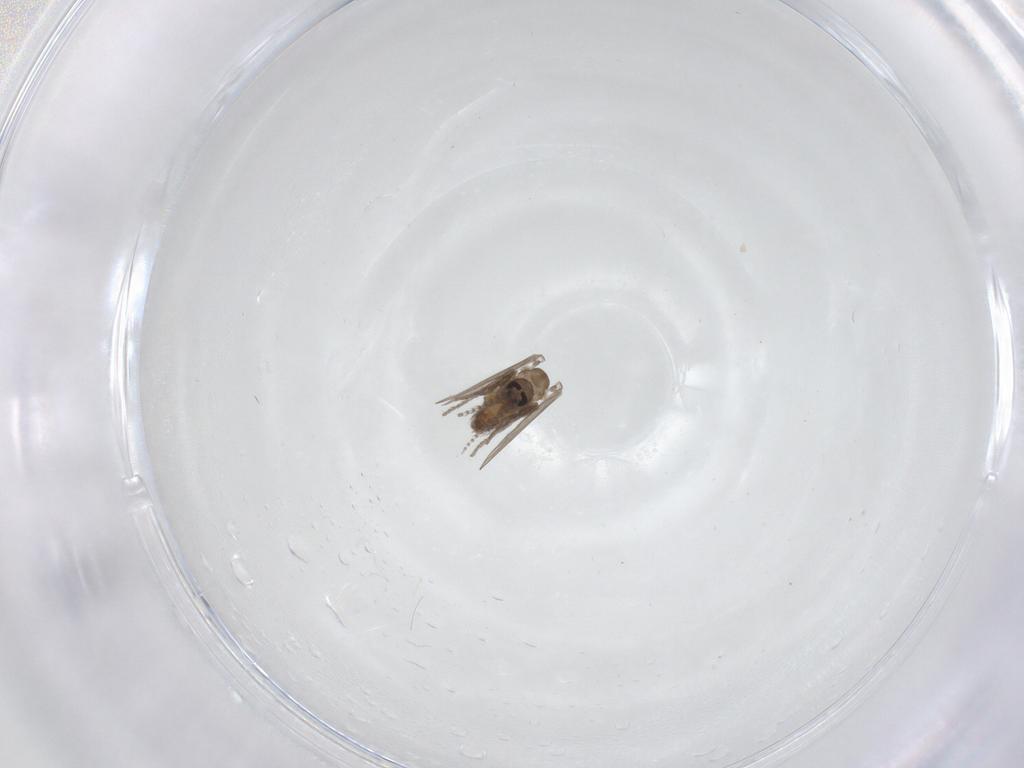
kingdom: Animalia
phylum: Arthropoda
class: Insecta
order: Diptera
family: Psychodidae
